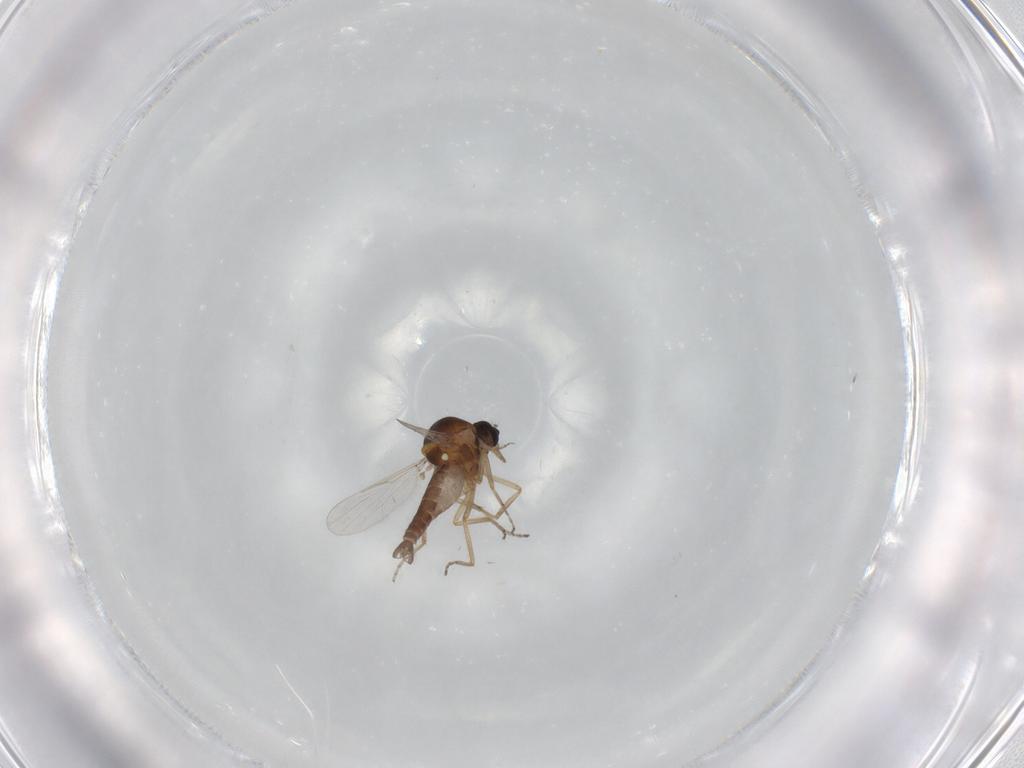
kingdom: Animalia
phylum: Arthropoda
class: Insecta
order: Diptera
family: Ceratopogonidae
